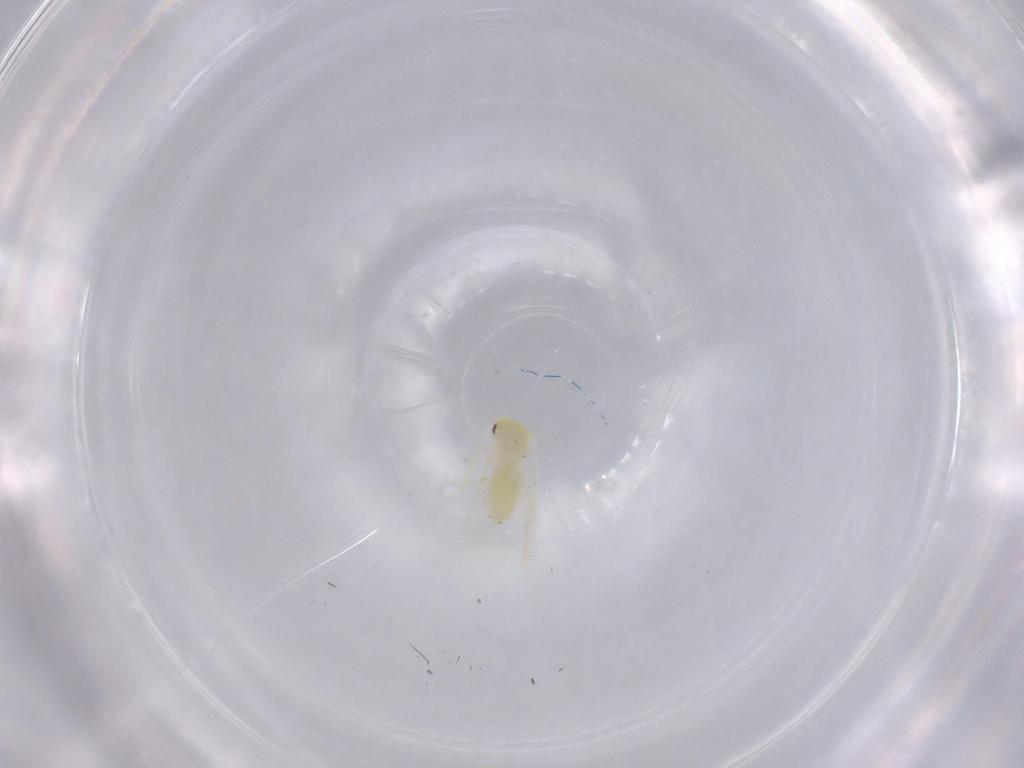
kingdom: Animalia
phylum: Arthropoda
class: Insecta
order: Hemiptera
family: Aleyrodidae
